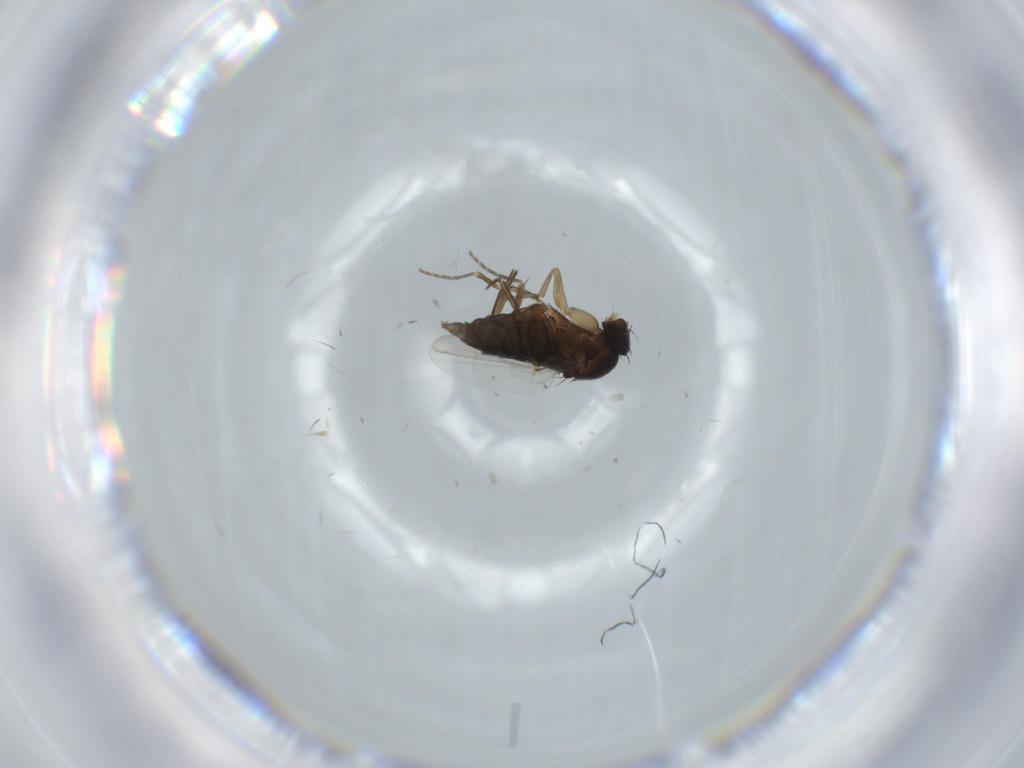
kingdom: Animalia
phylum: Arthropoda
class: Insecta
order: Diptera
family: Phoridae
